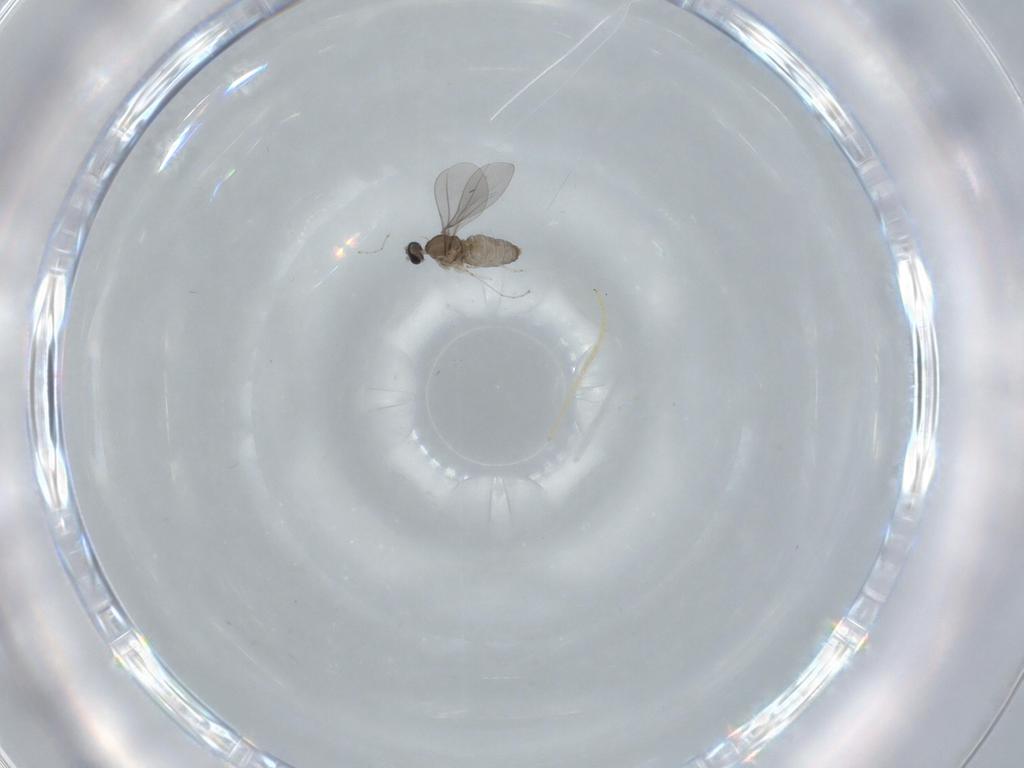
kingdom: Animalia
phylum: Arthropoda
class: Insecta
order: Diptera
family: Chironomidae
